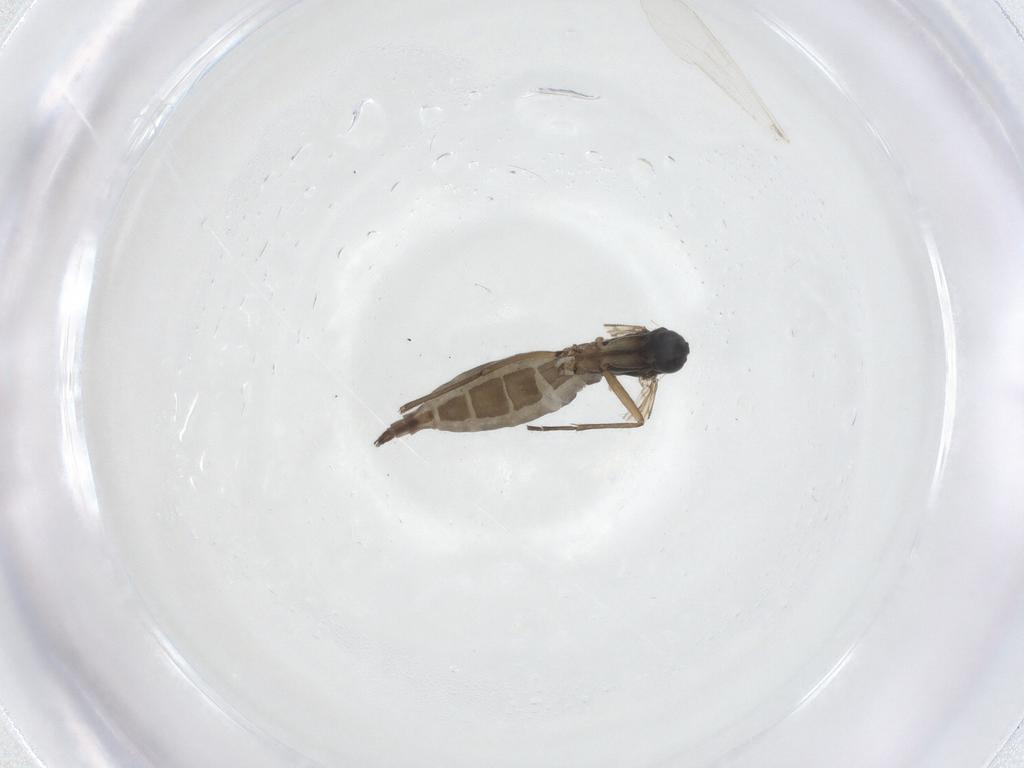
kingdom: Animalia
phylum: Arthropoda
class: Insecta
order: Diptera
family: Sciaridae
